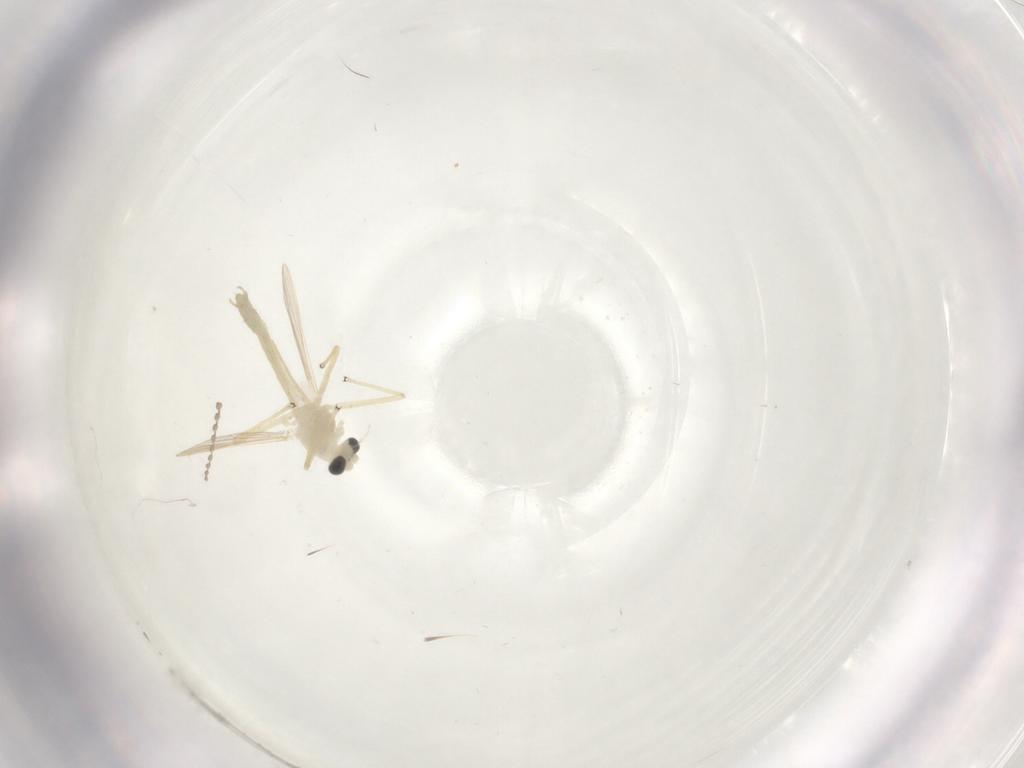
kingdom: Animalia
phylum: Arthropoda
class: Insecta
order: Diptera
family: Chironomidae
